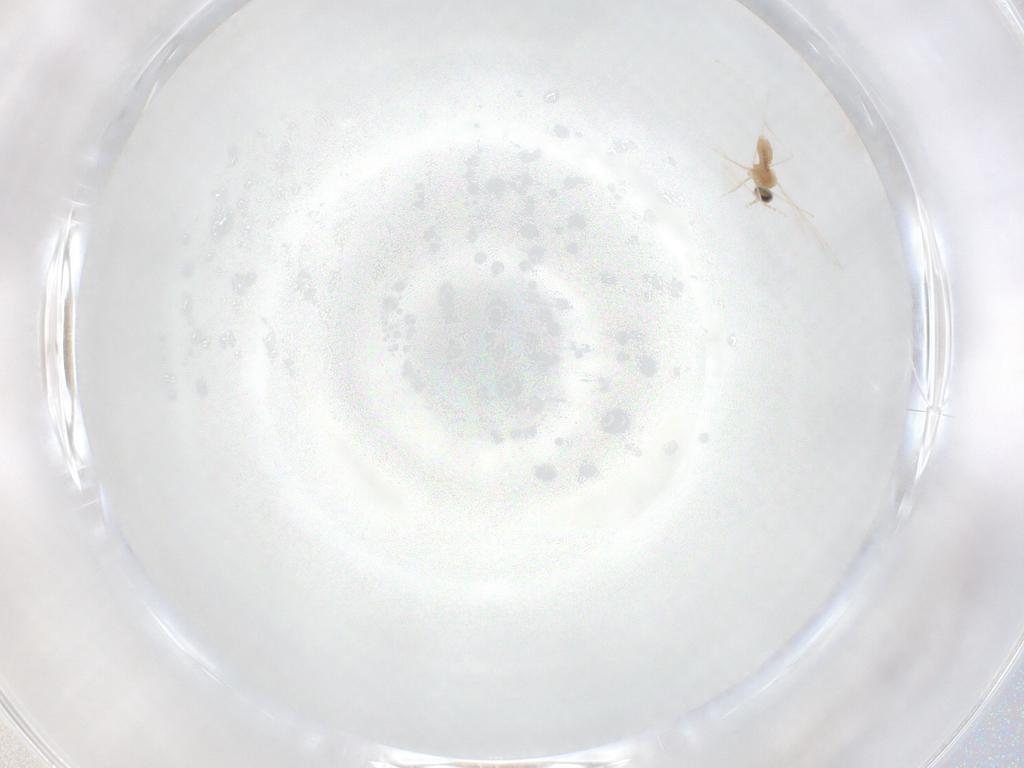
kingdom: Animalia
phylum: Arthropoda
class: Insecta
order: Diptera
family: Cecidomyiidae
